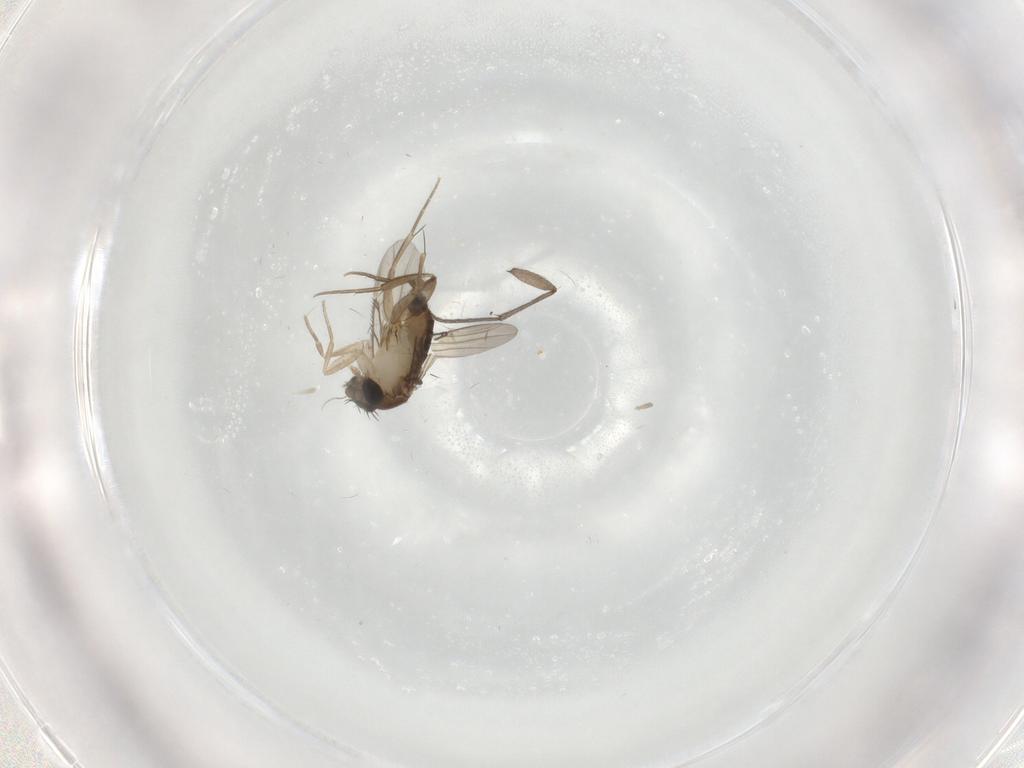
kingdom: Animalia
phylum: Arthropoda
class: Insecta
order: Diptera
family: Phoridae
